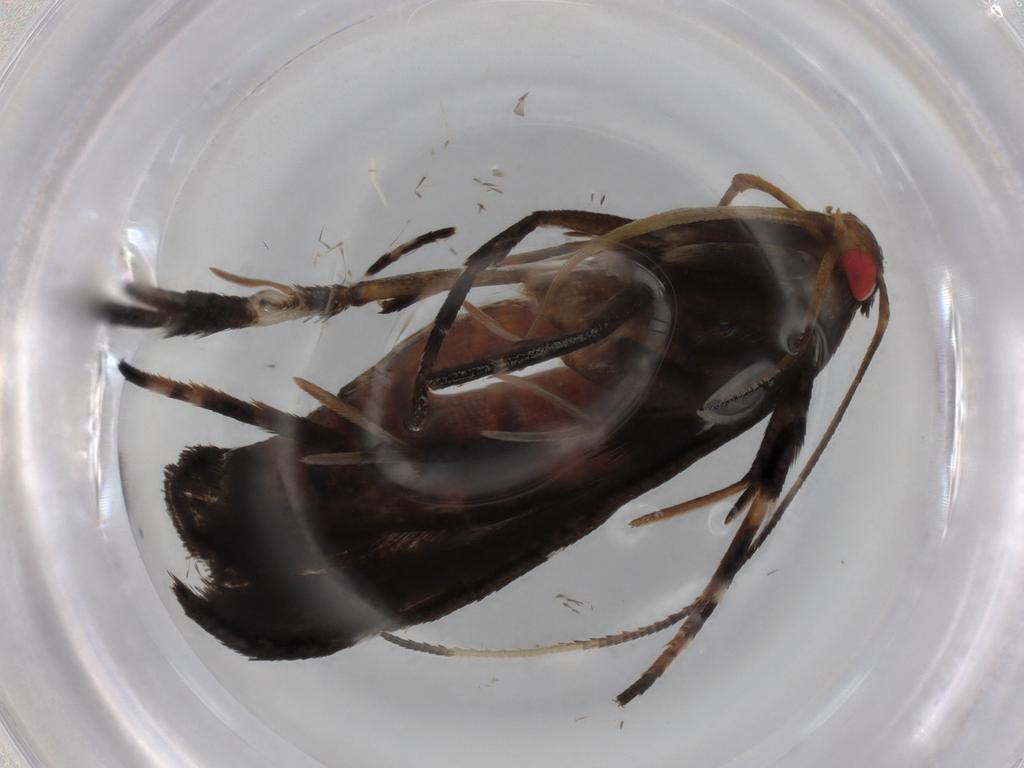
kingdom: Animalia
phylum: Arthropoda
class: Insecta
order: Lepidoptera
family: Gelechiidae
